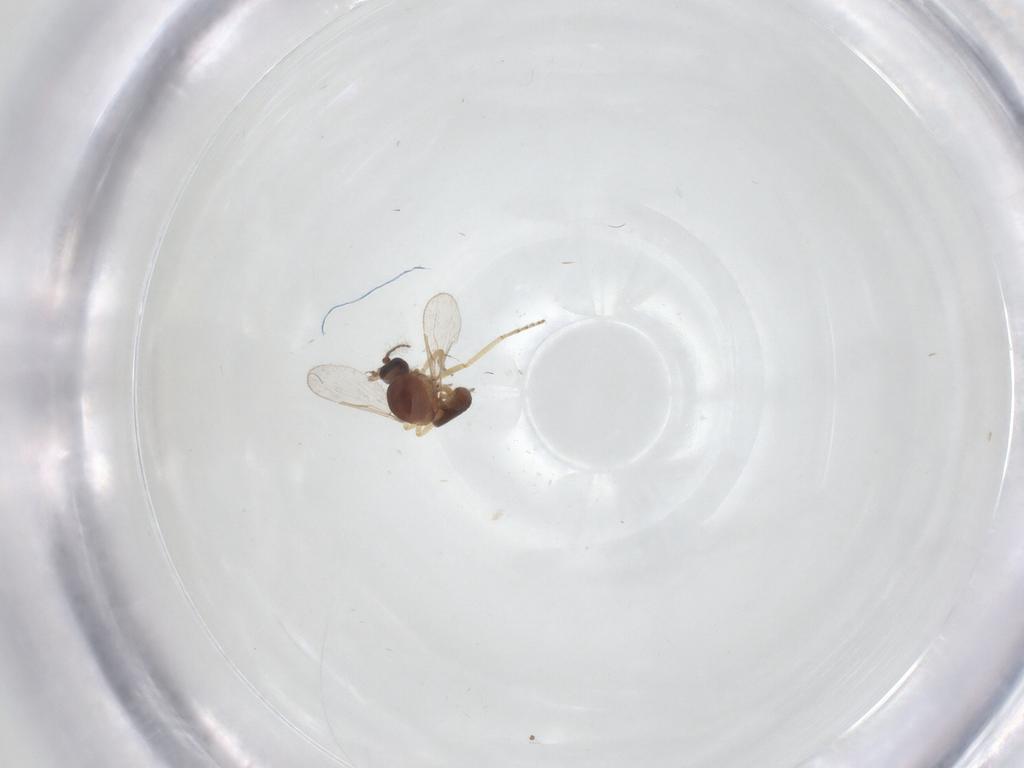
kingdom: Animalia
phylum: Arthropoda
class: Insecta
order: Diptera
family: Ceratopogonidae
